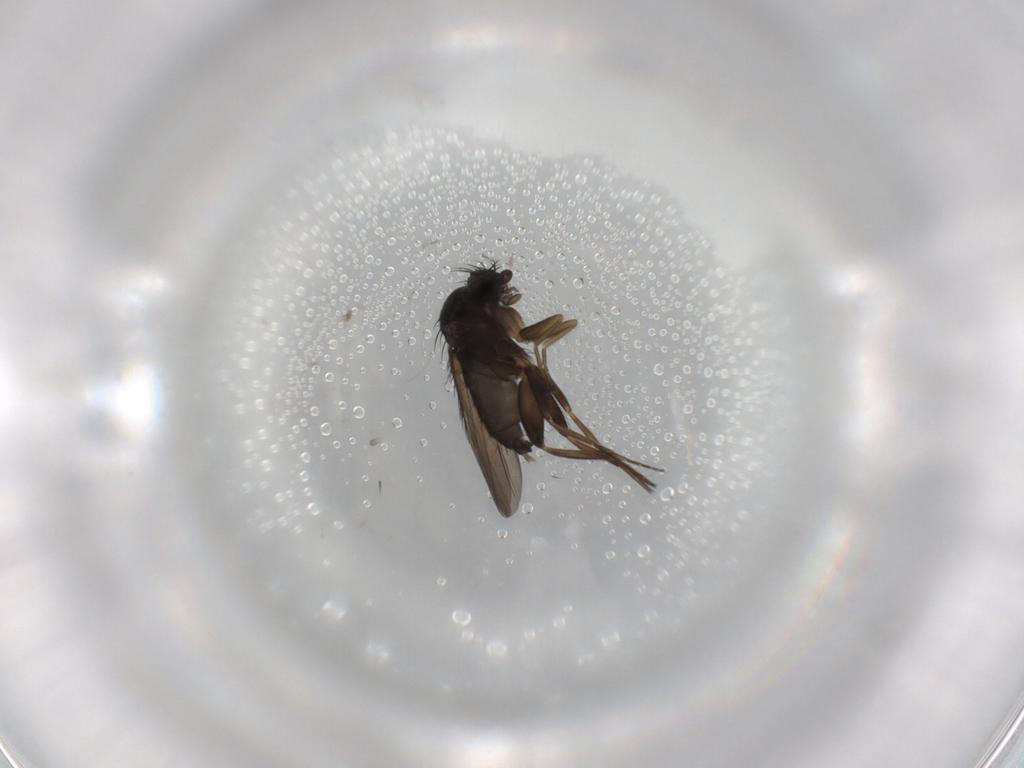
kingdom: Animalia
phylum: Arthropoda
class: Insecta
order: Diptera
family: Phoridae
